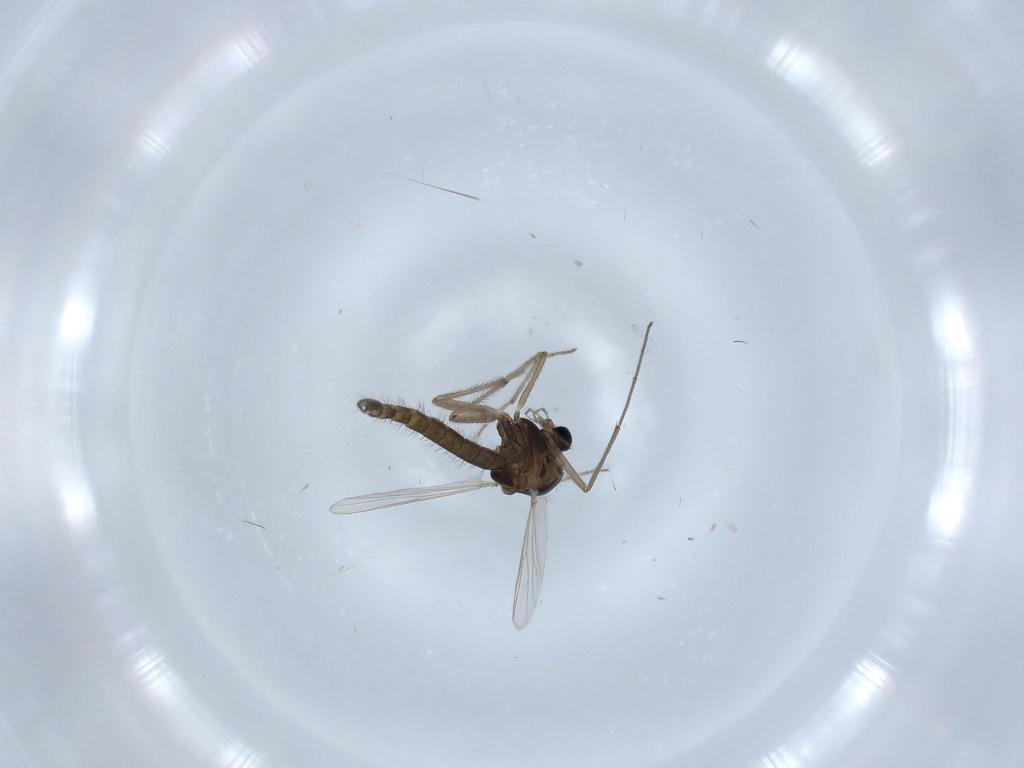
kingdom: Animalia
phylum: Arthropoda
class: Insecta
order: Diptera
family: Chironomidae
